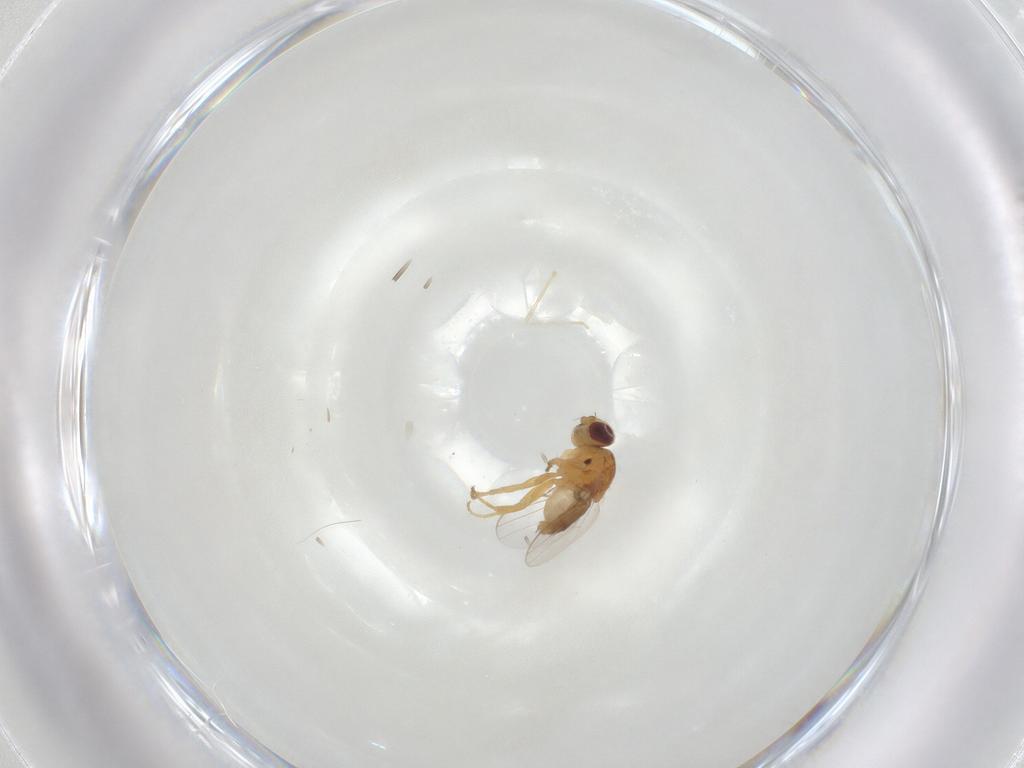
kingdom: Animalia
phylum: Arthropoda
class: Insecta
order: Diptera
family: Chloropidae
